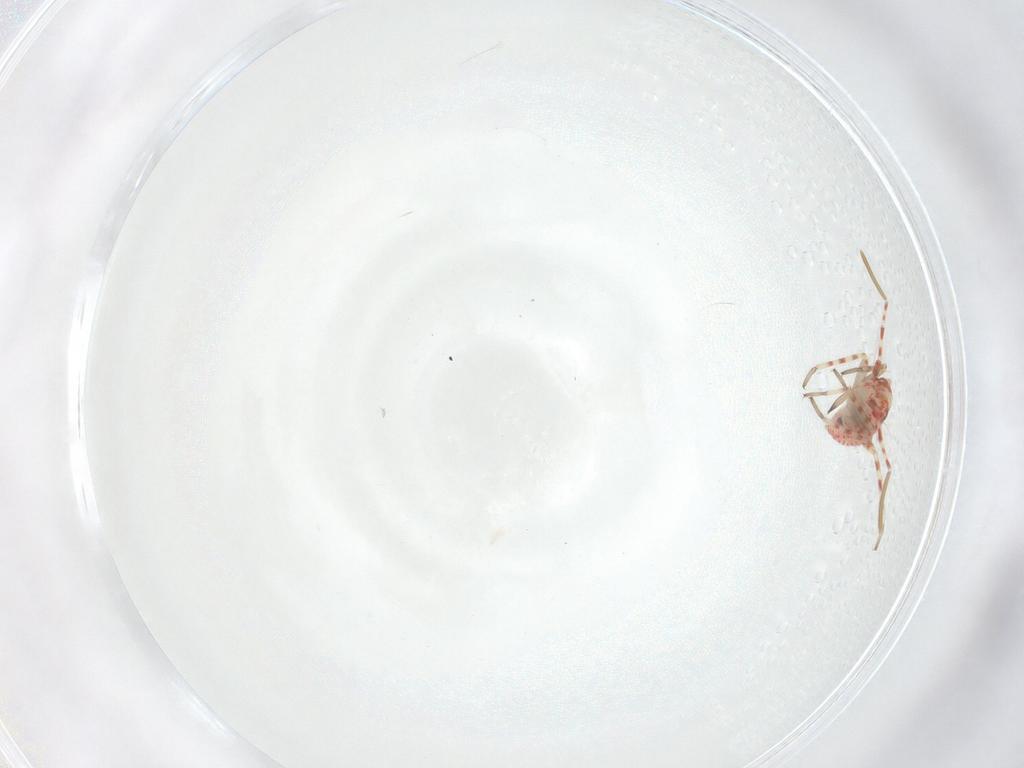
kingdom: Animalia
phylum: Arthropoda
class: Insecta
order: Hemiptera
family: Miridae
